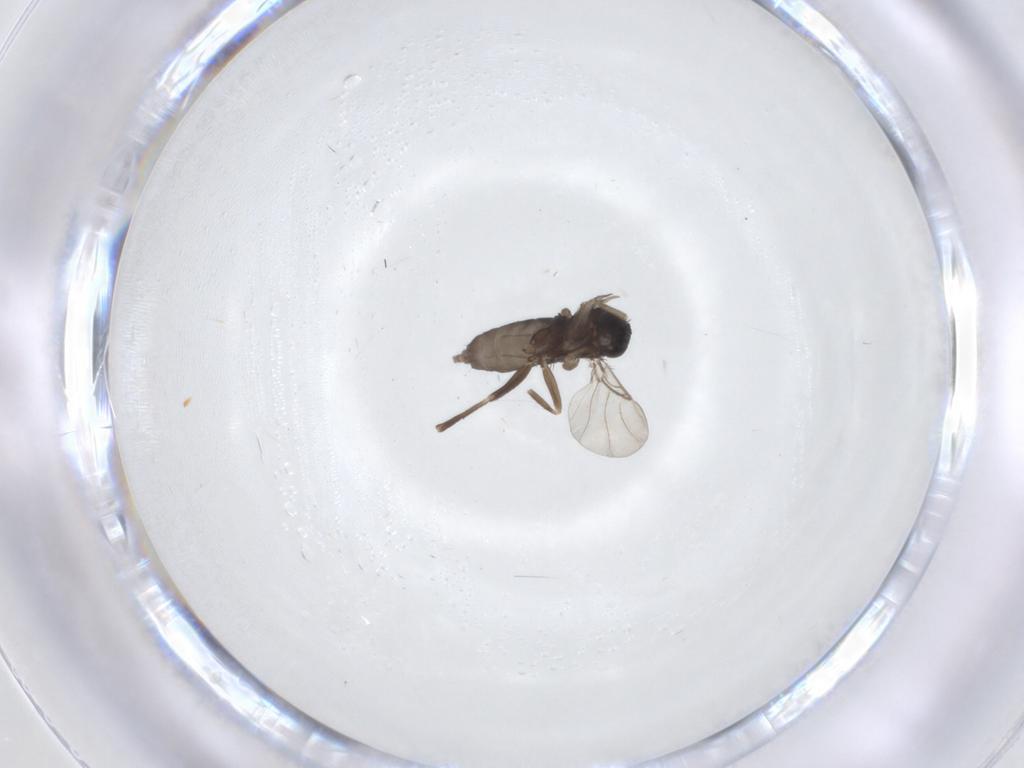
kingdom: Animalia
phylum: Arthropoda
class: Insecta
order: Diptera
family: Phoridae
